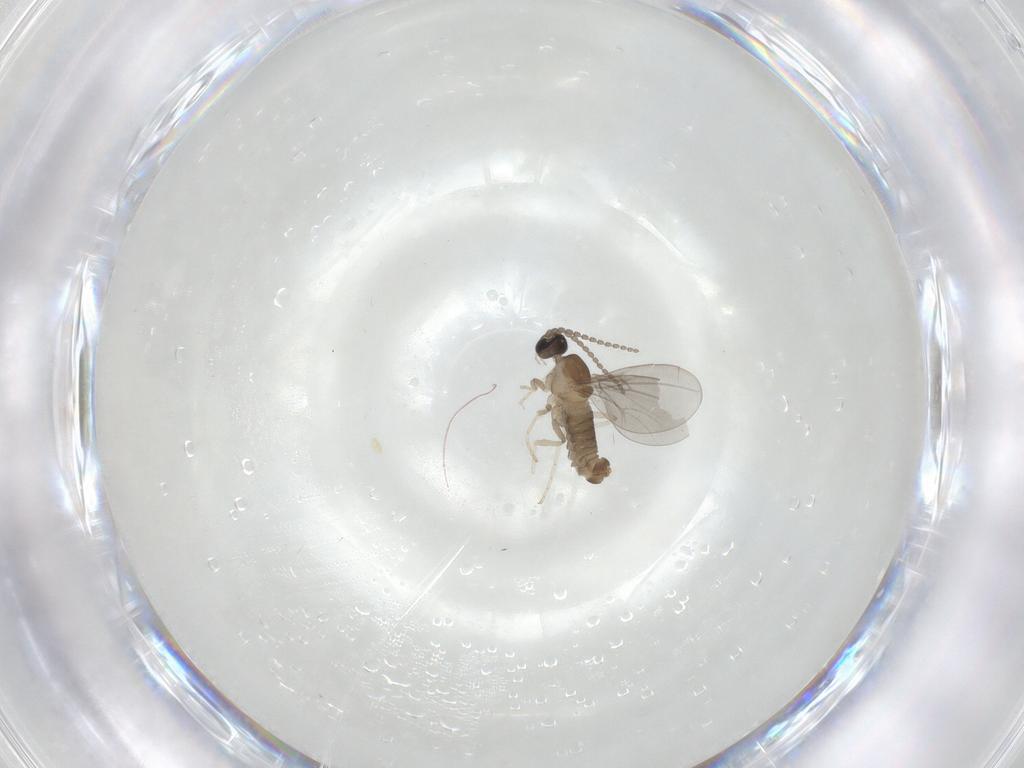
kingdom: Animalia
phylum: Arthropoda
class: Insecta
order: Diptera
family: Cecidomyiidae
